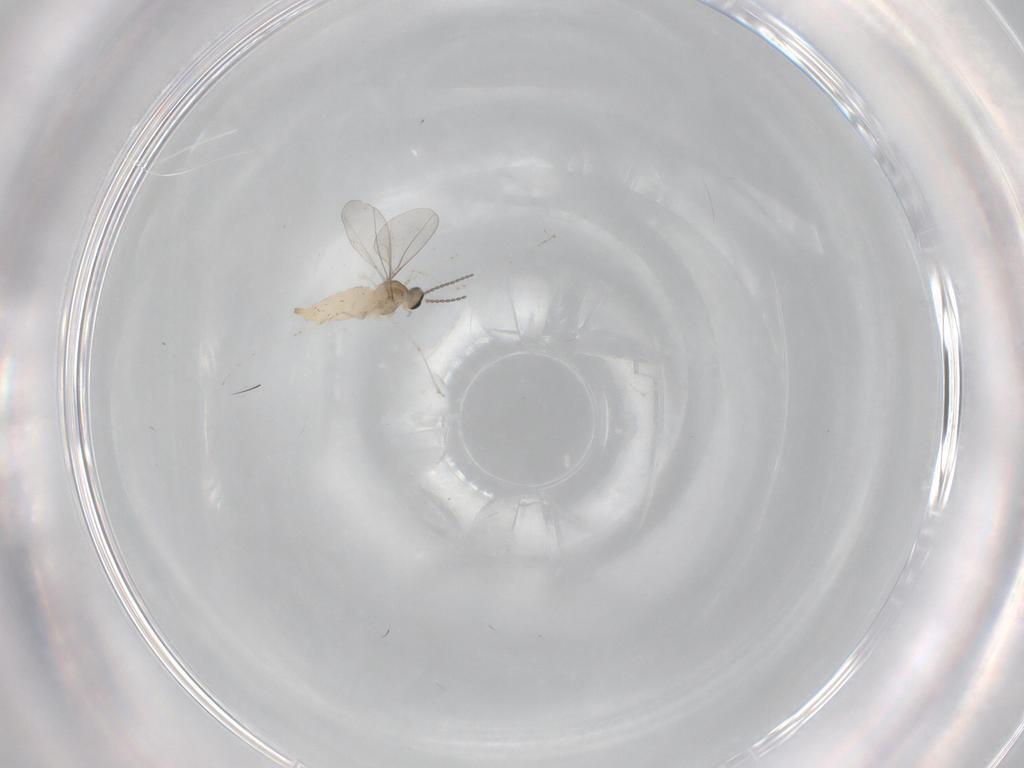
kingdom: Animalia
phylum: Arthropoda
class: Insecta
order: Diptera
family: Cecidomyiidae
